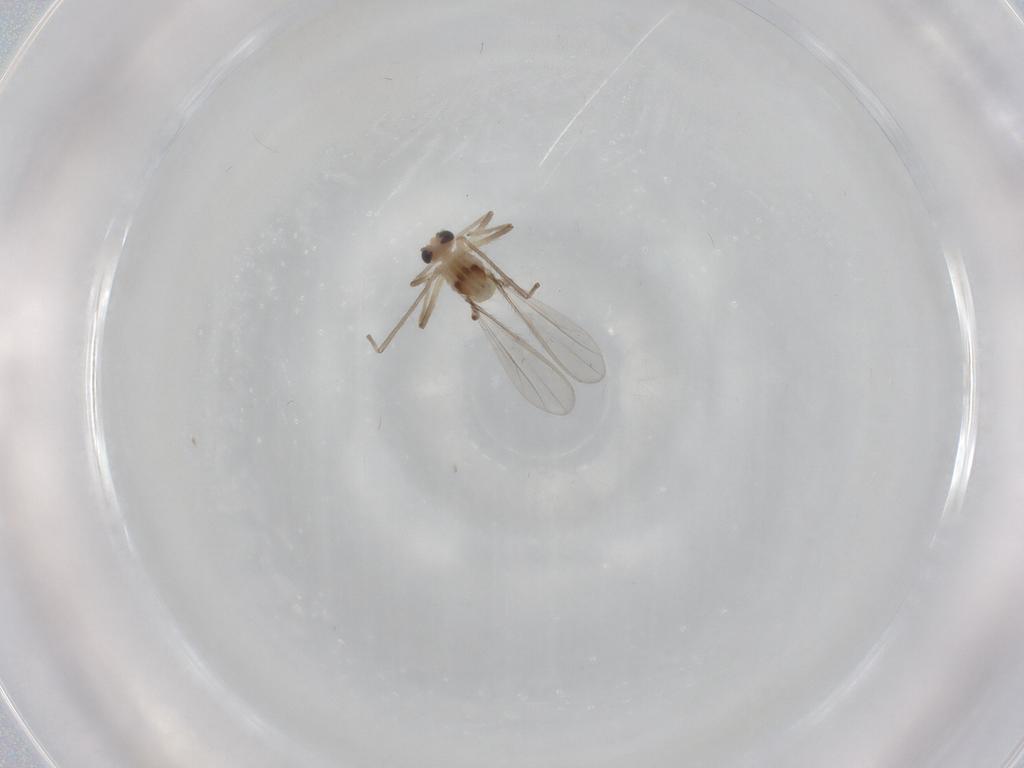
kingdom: Animalia
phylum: Arthropoda
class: Insecta
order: Diptera
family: Chironomidae
